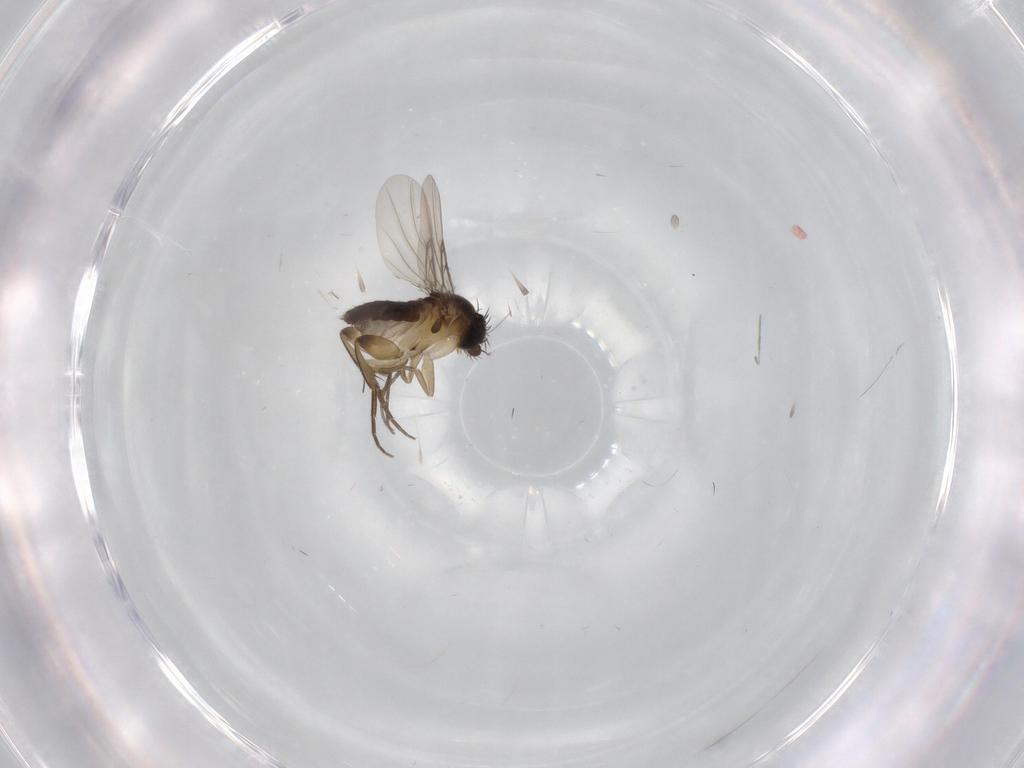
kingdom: Animalia
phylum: Arthropoda
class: Insecta
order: Diptera
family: Phoridae
